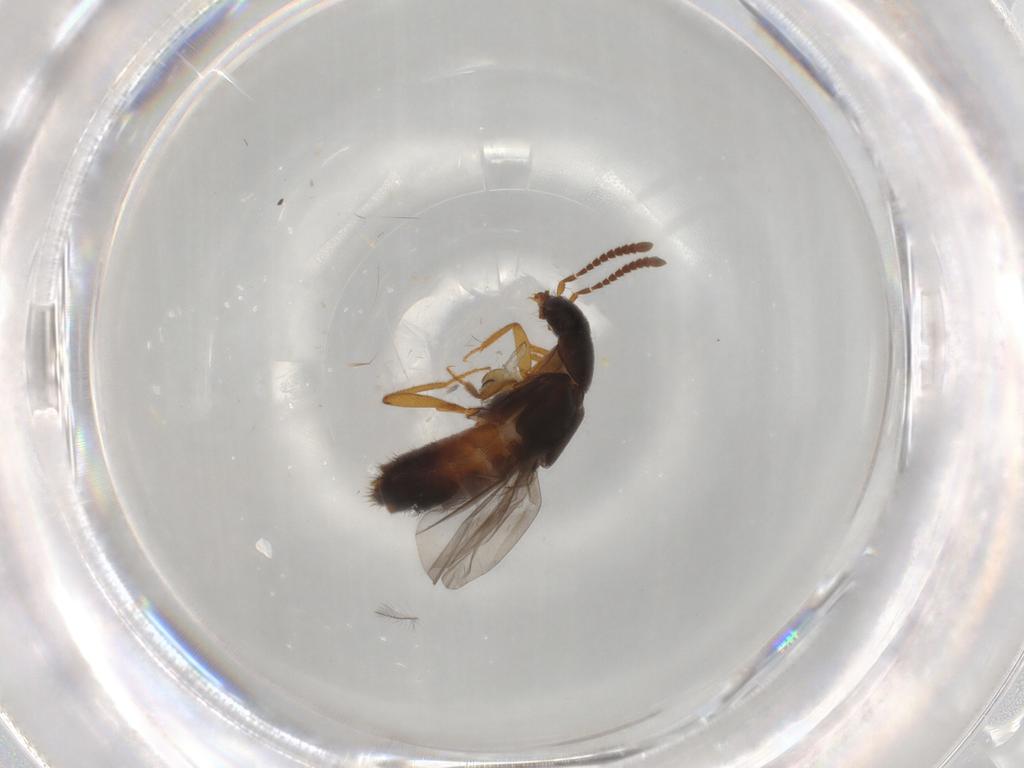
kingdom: Animalia
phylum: Arthropoda
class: Insecta
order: Coleoptera
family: Staphylinidae
